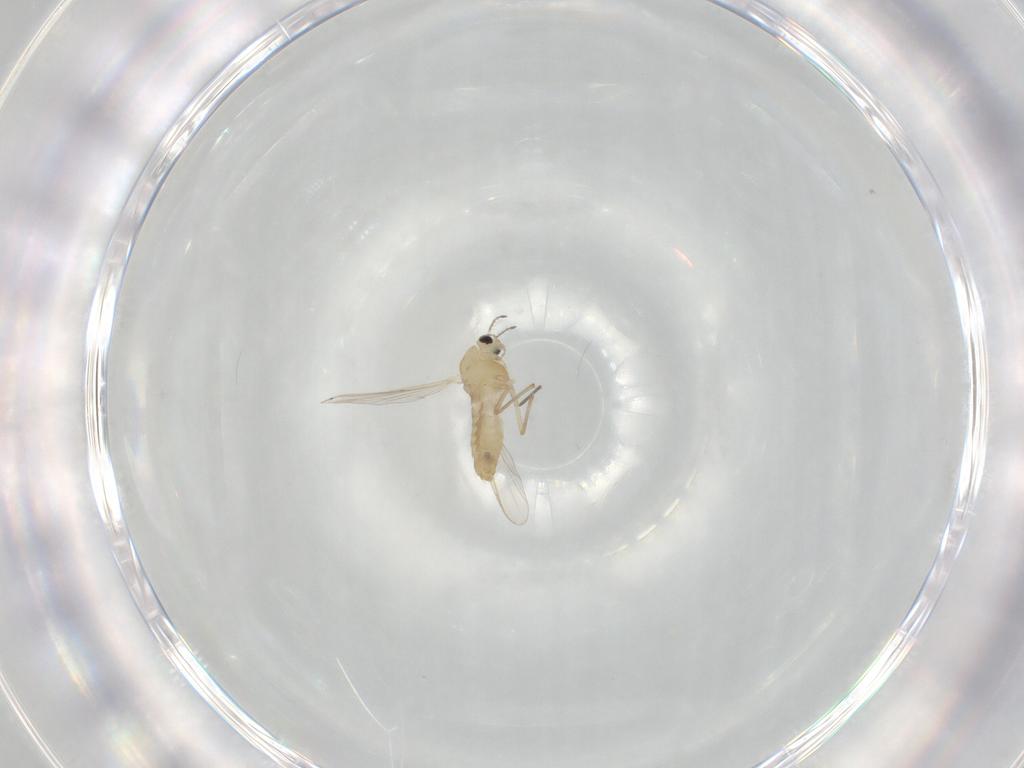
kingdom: Animalia
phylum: Arthropoda
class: Insecta
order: Diptera
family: Chironomidae
